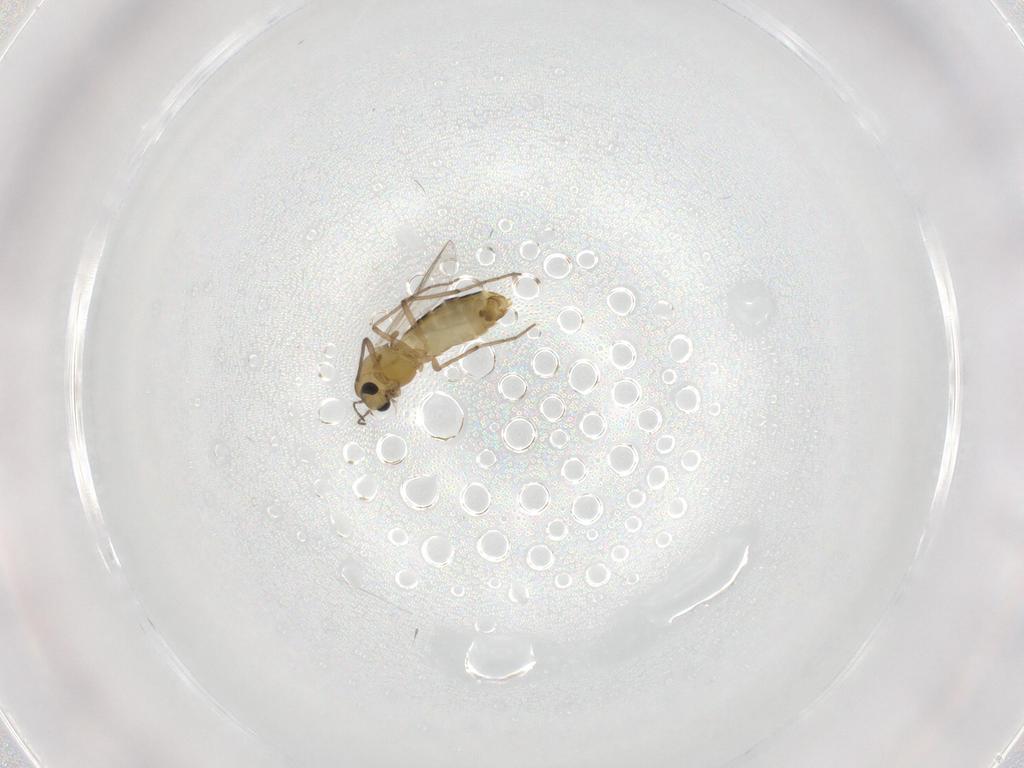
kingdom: Animalia
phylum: Arthropoda
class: Insecta
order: Diptera
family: Chironomidae
